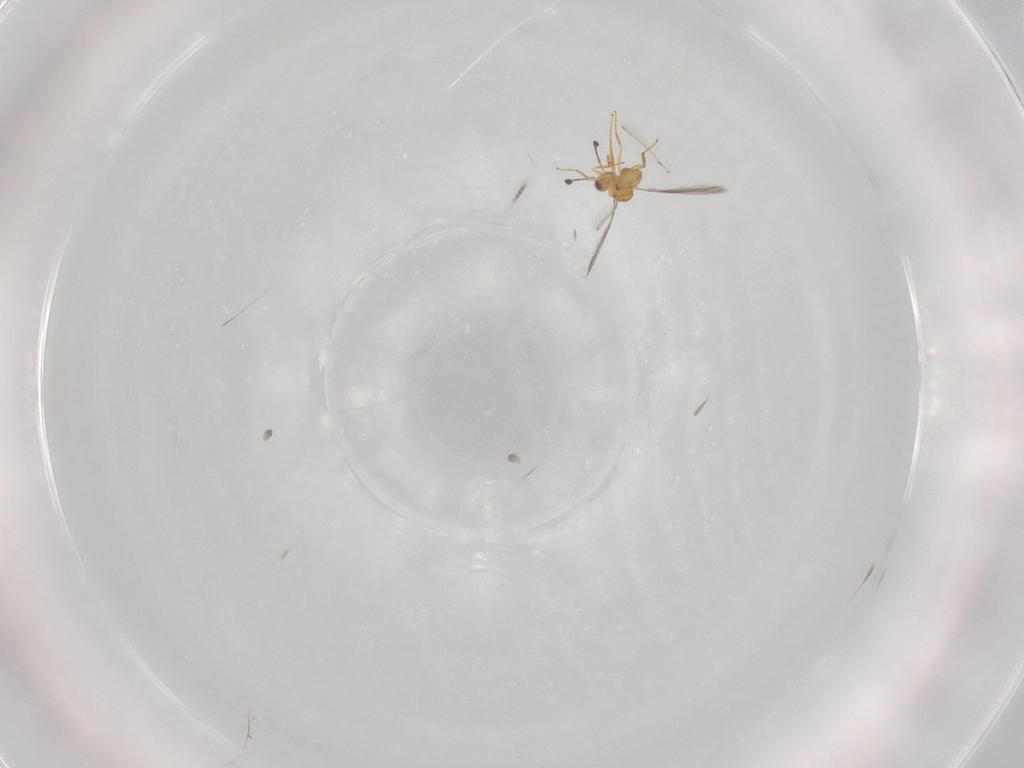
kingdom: Animalia
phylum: Arthropoda
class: Insecta
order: Hymenoptera
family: Mymaridae
